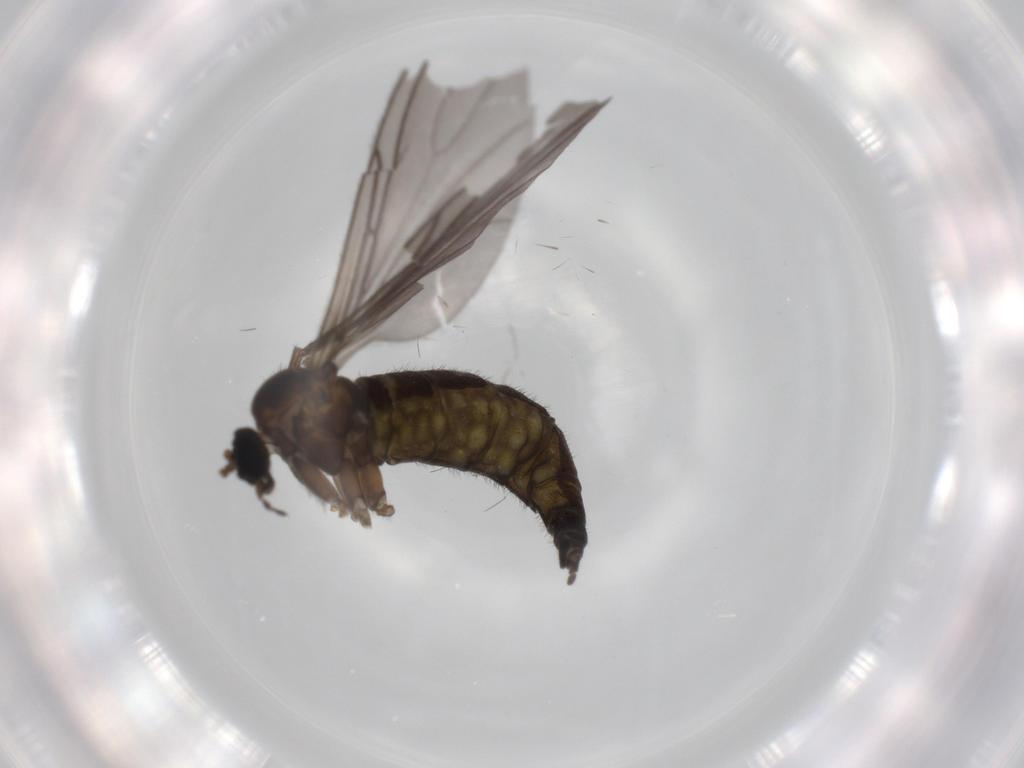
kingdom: Animalia
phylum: Arthropoda
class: Insecta
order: Diptera
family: Sciaridae
